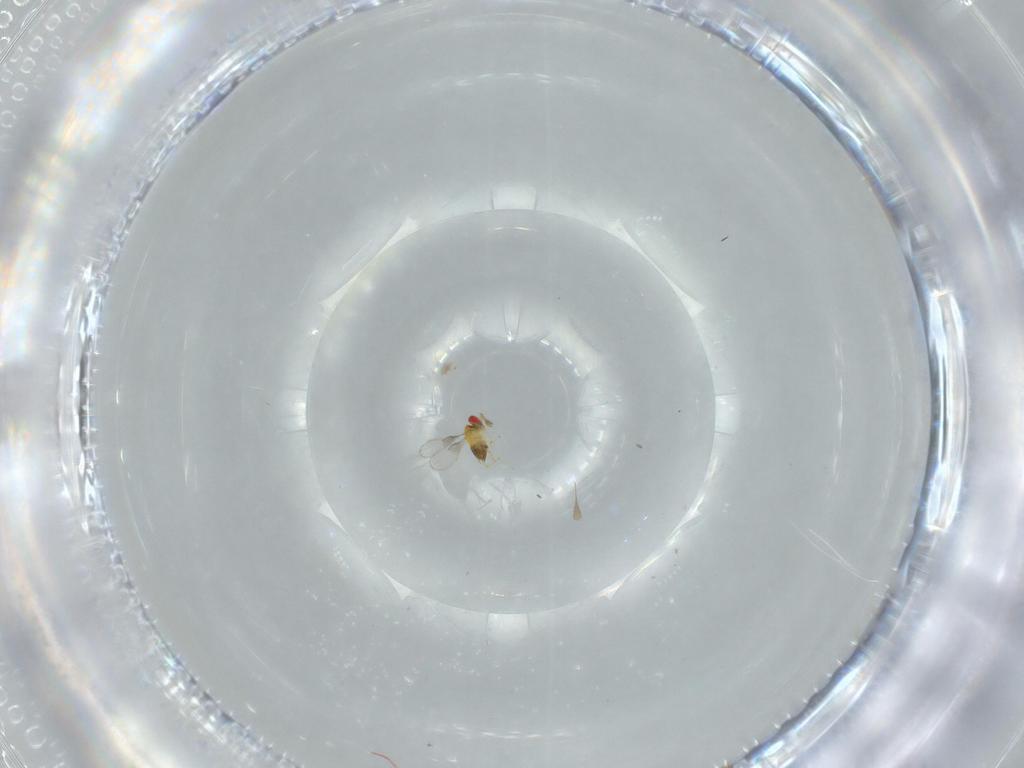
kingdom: Animalia
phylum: Arthropoda
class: Insecta
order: Hymenoptera
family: Trichogrammatidae
